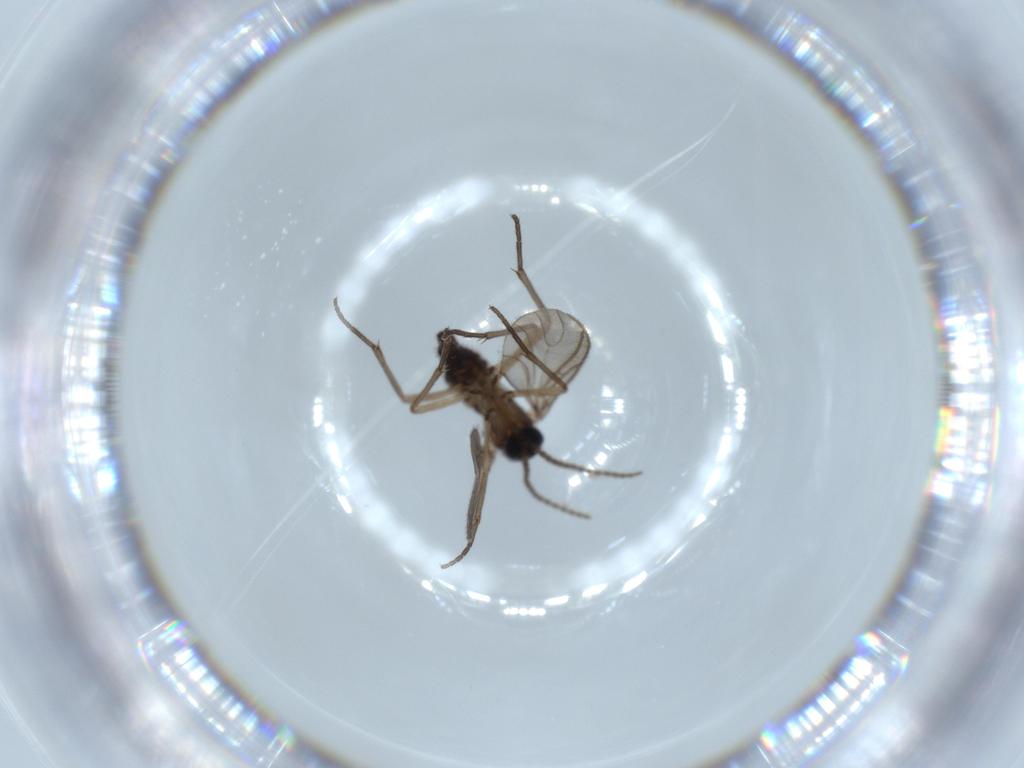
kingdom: Animalia
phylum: Arthropoda
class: Insecta
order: Diptera
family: Sciaridae
